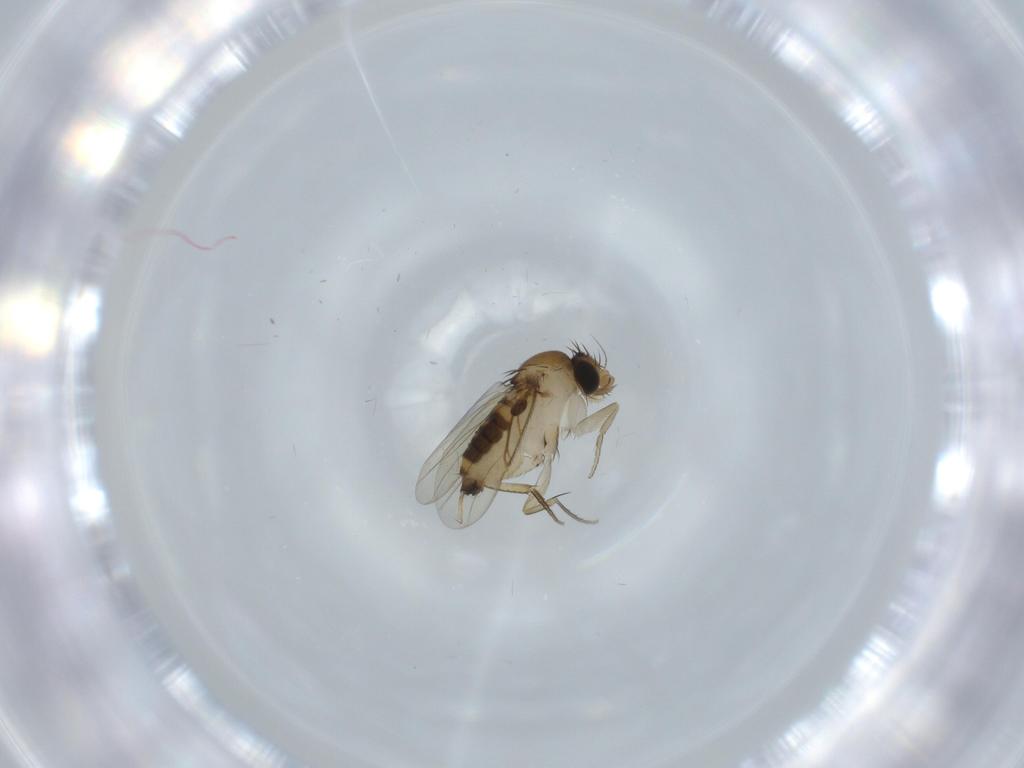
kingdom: Animalia
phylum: Arthropoda
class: Insecta
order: Diptera
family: Phoridae
